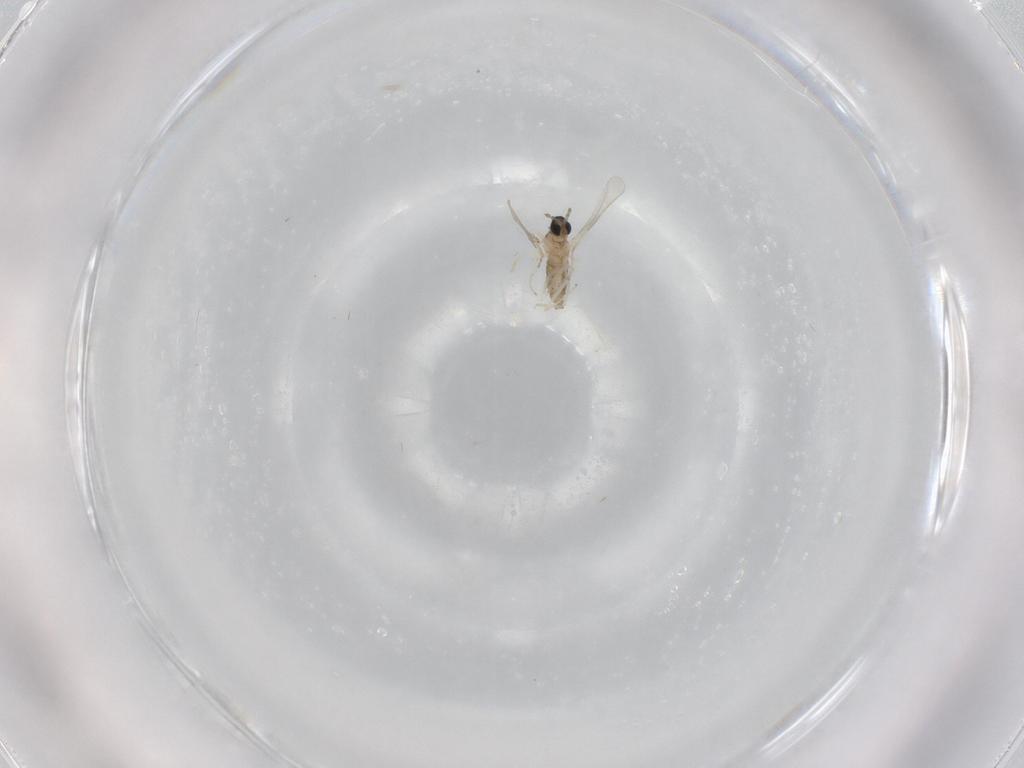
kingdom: Animalia
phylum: Arthropoda
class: Insecta
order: Diptera
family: Cecidomyiidae
